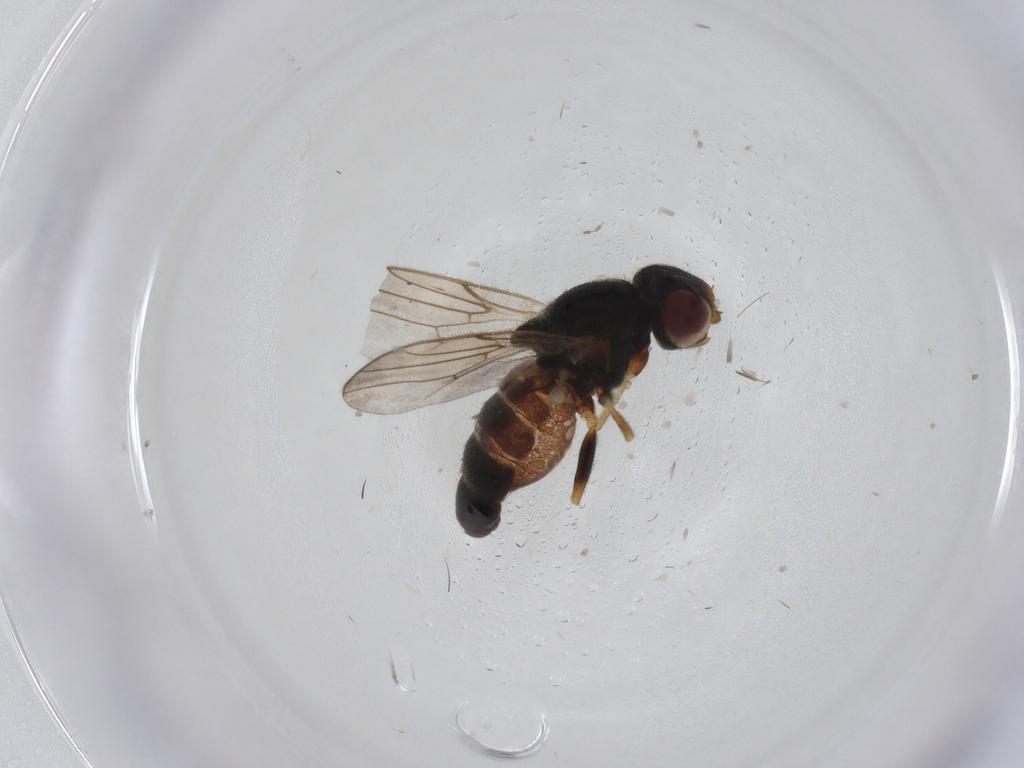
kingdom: Animalia
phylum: Arthropoda
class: Insecta
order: Diptera
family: Chloropidae
